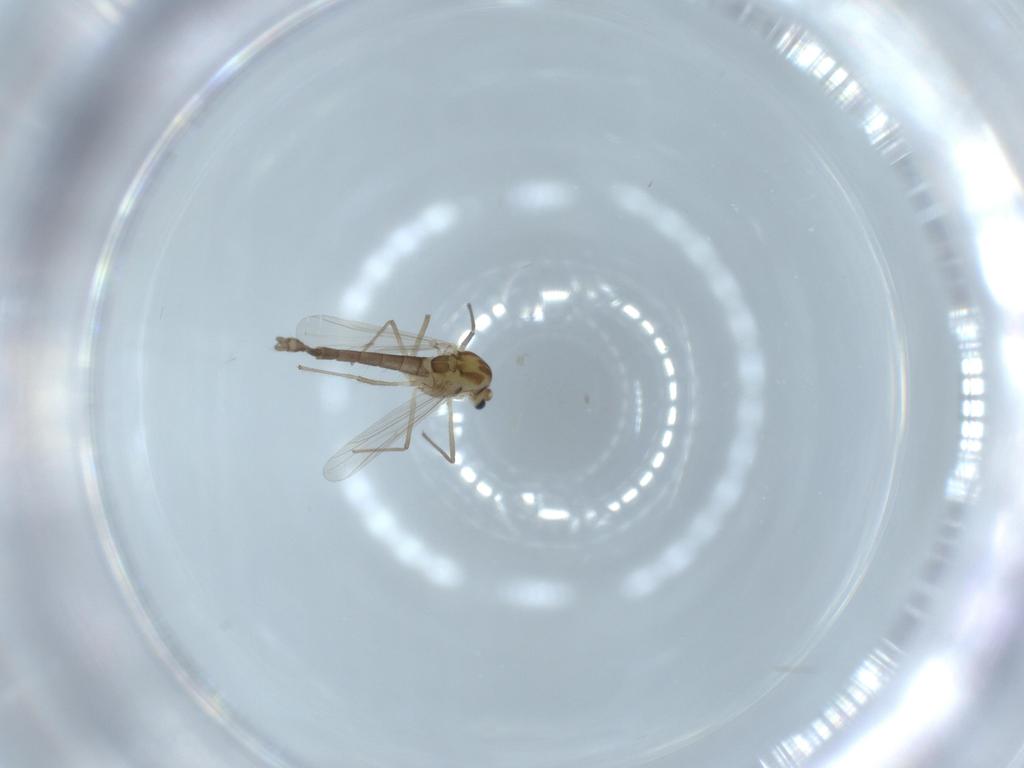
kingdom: Animalia
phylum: Arthropoda
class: Insecta
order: Diptera
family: Chironomidae
